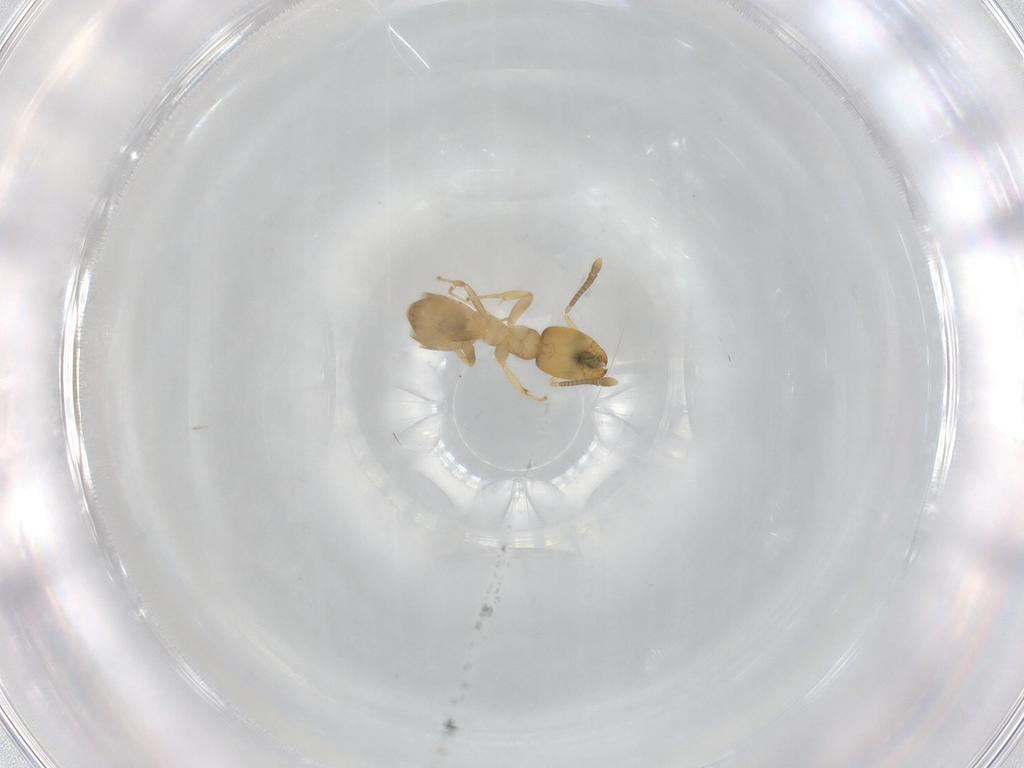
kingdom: Animalia
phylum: Arthropoda
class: Insecta
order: Hymenoptera
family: Formicidae
